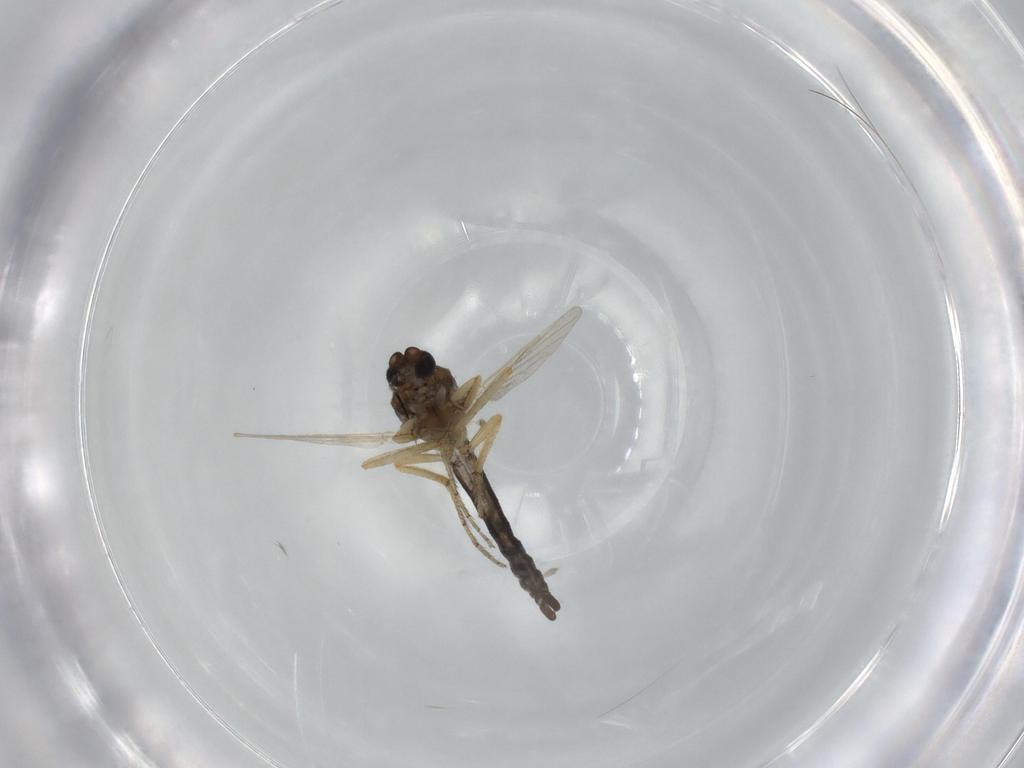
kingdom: Animalia
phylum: Arthropoda
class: Insecta
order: Diptera
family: Ceratopogonidae
